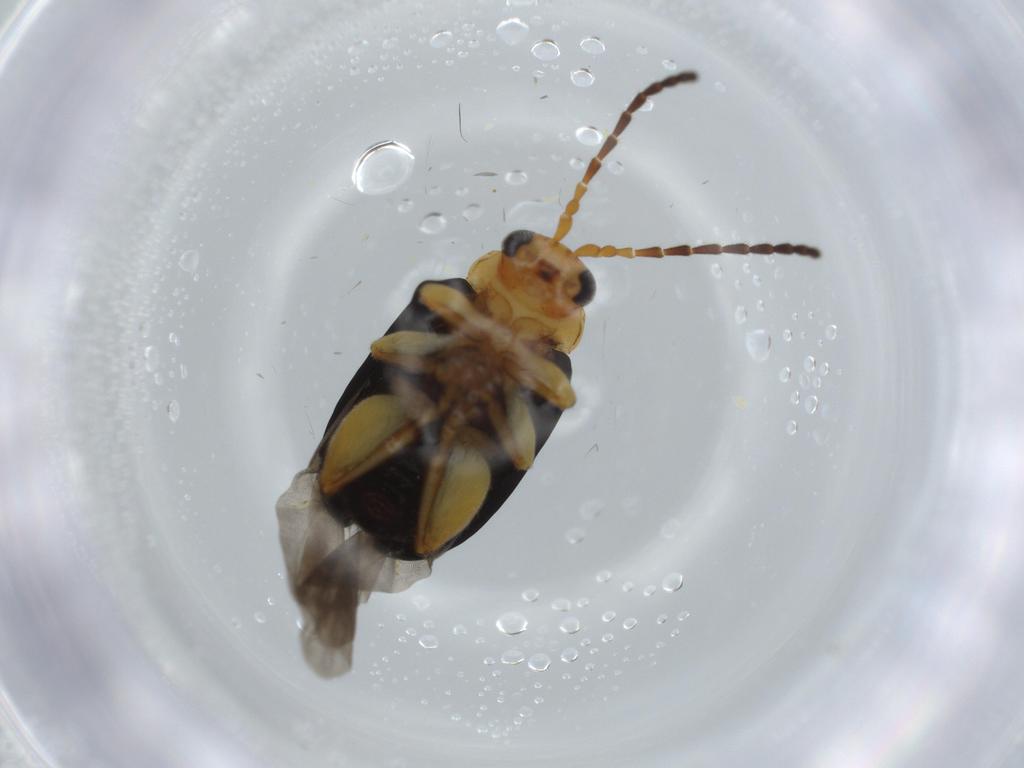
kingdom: Animalia
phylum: Arthropoda
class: Insecta
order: Coleoptera
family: Chrysomelidae
